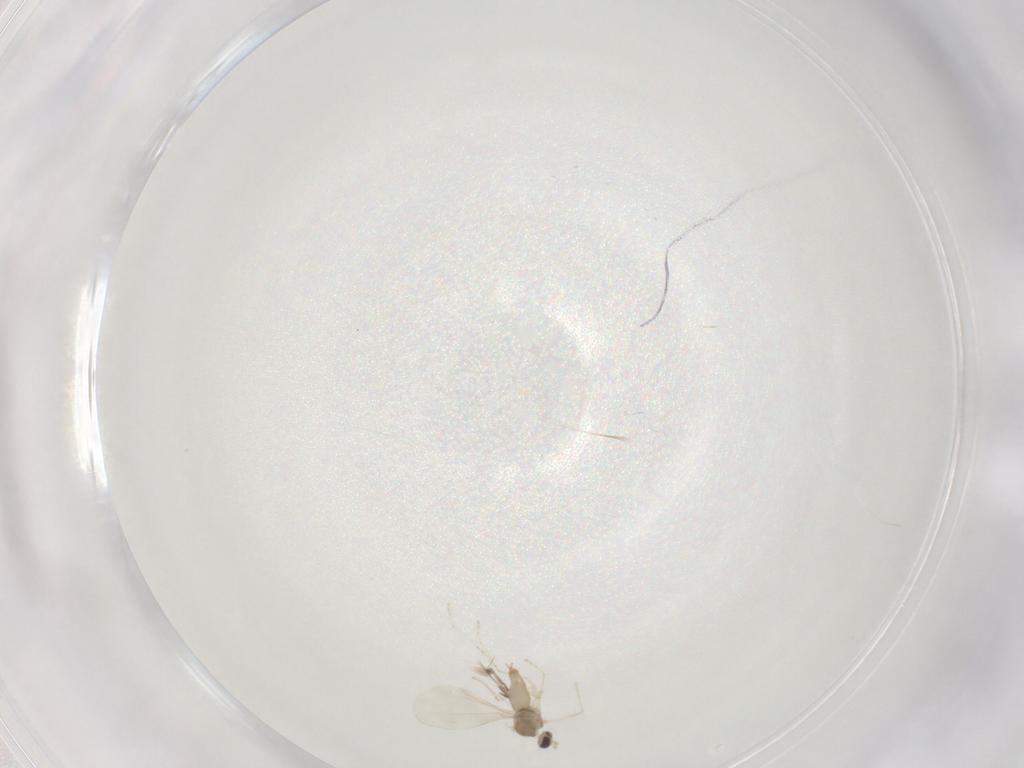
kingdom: Animalia
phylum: Arthropoda
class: Insecta
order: Diptera
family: Cecidomyiidae
